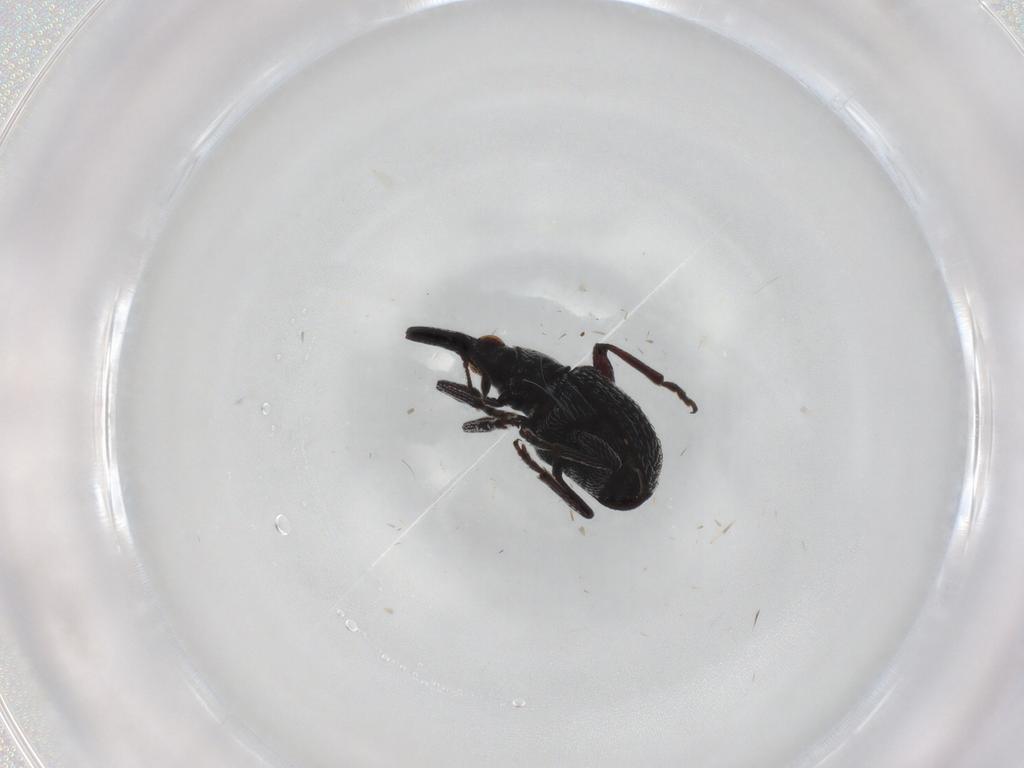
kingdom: Animalia
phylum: Arthropoda
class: Insecta
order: Coleoptera
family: Brentidae
